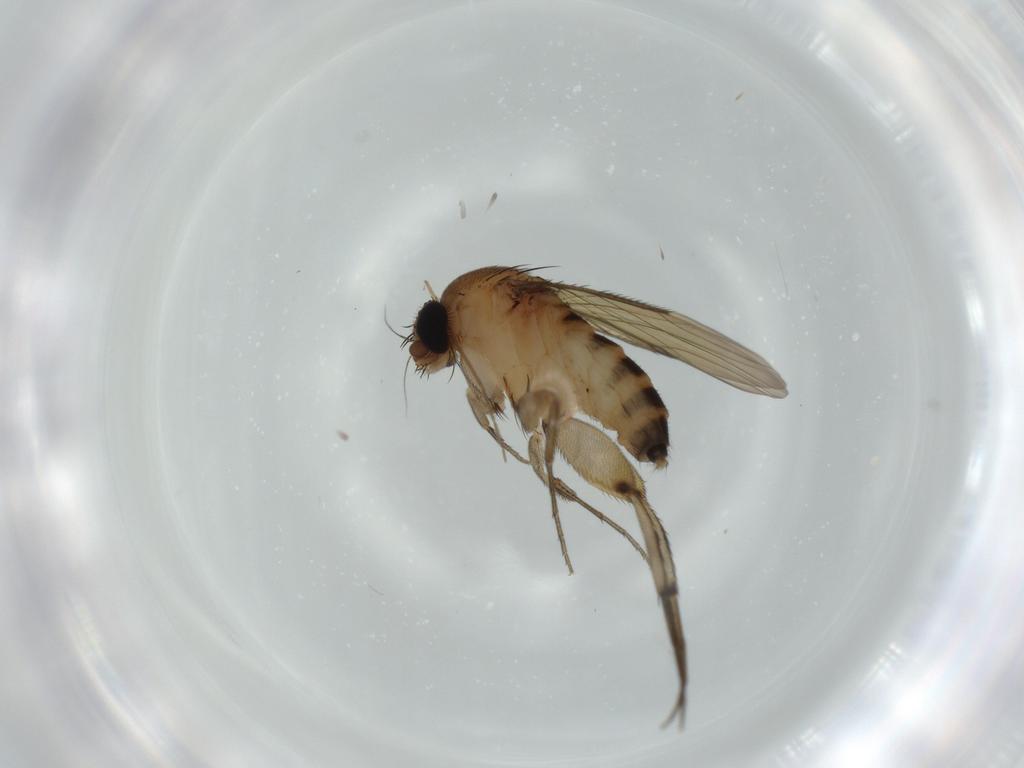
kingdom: Animalia
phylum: Arthropoda
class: Insecta
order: Diptera
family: Phoridae
